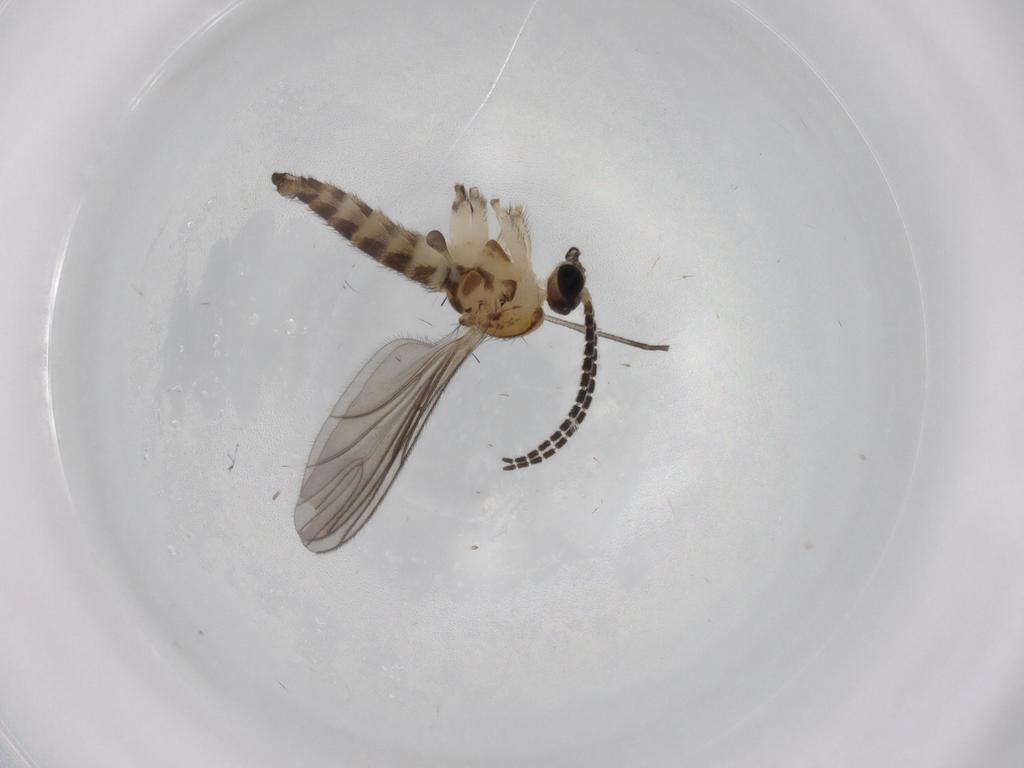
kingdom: Animalia
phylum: Arthropoda
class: Insecta
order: Diptera
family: Sciaridae
